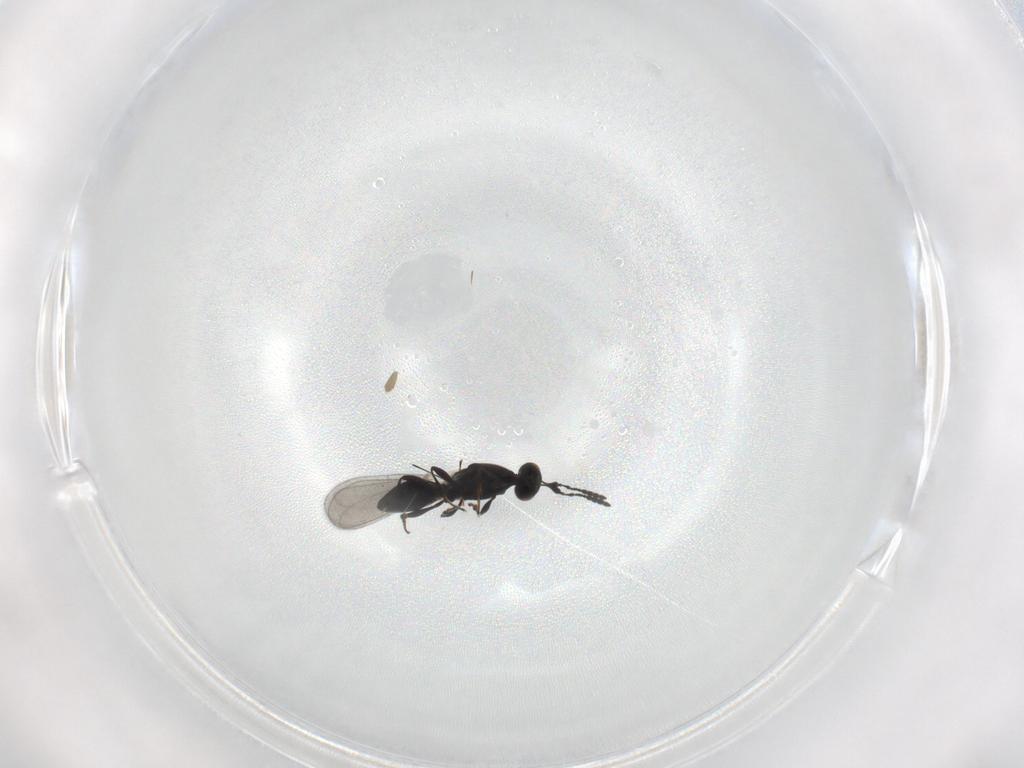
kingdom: Animalia
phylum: Arthropoda
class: Insecta
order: Hymenoptera
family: Platygastridae
